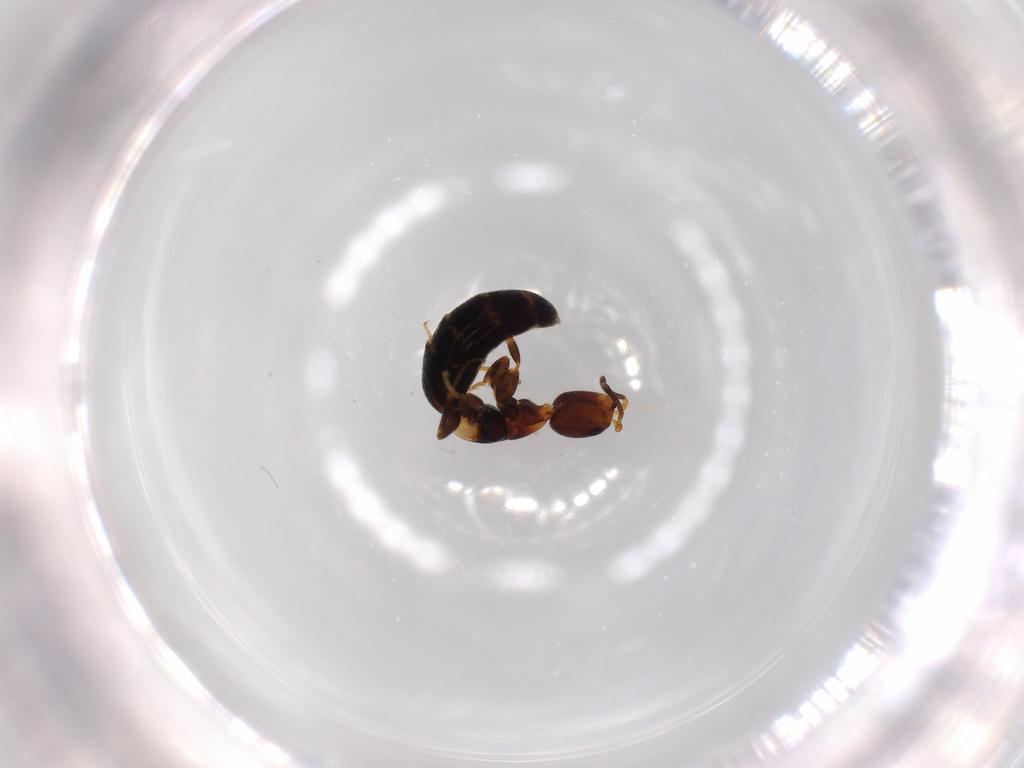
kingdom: Animalia
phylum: Arthropoda
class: Insecta
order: Hymenoptera
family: Bethylidae
